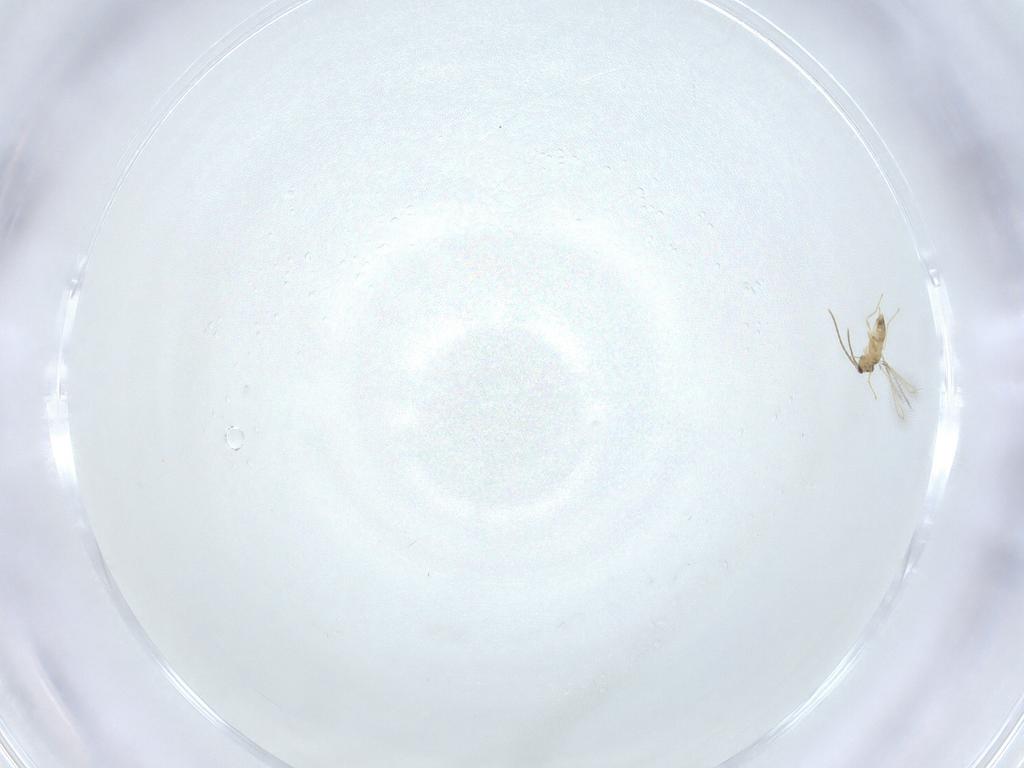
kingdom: Animalia
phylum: Arthropoda
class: Insecta
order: Hymenoptera
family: Mymaridae
